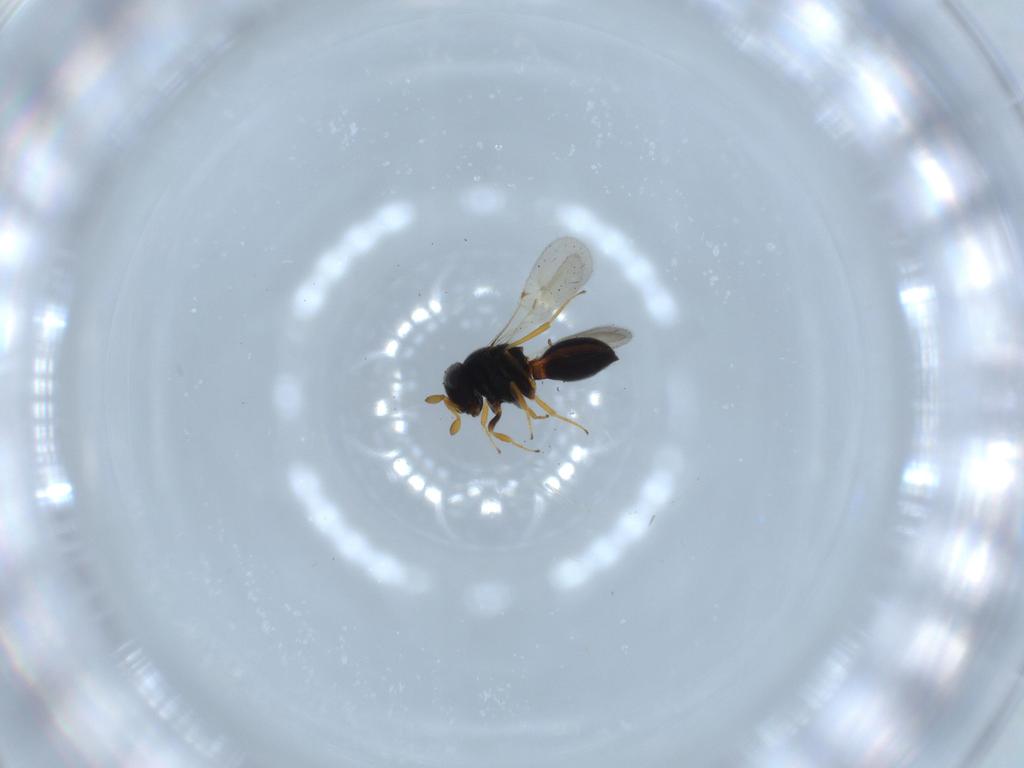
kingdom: Animalia
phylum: Arthropoda
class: Insecta
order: Hymenoptera
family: Scelionidae
